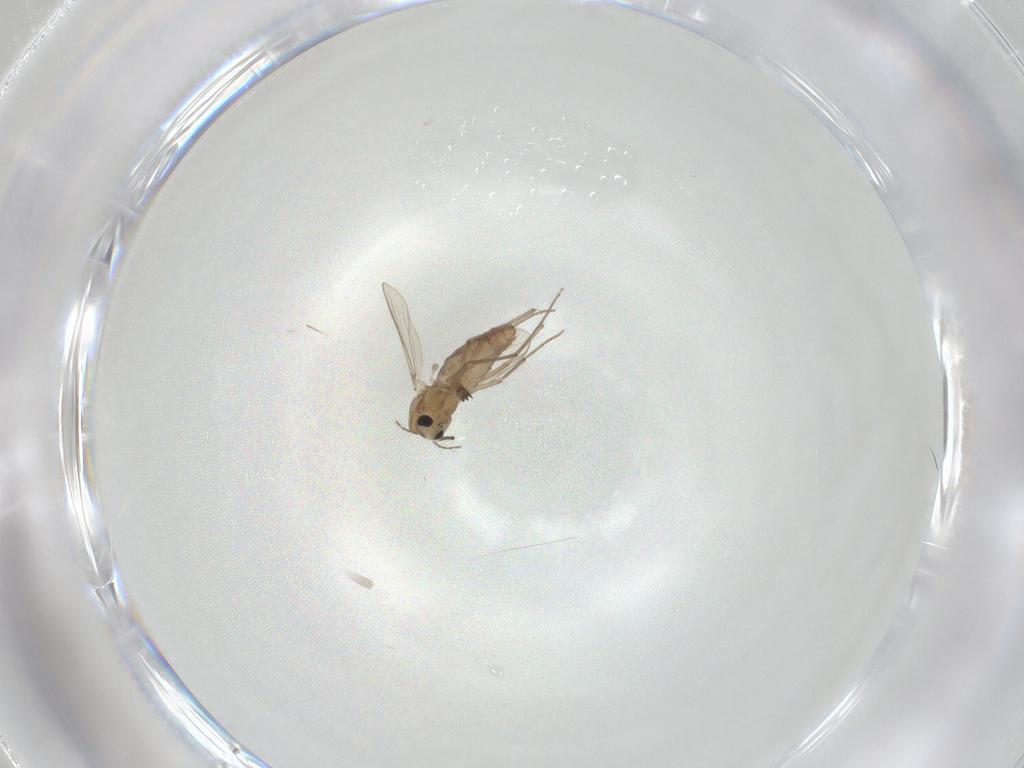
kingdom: Animalia
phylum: Arthropoda
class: Insecta
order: Diptera
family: Chironomidae
